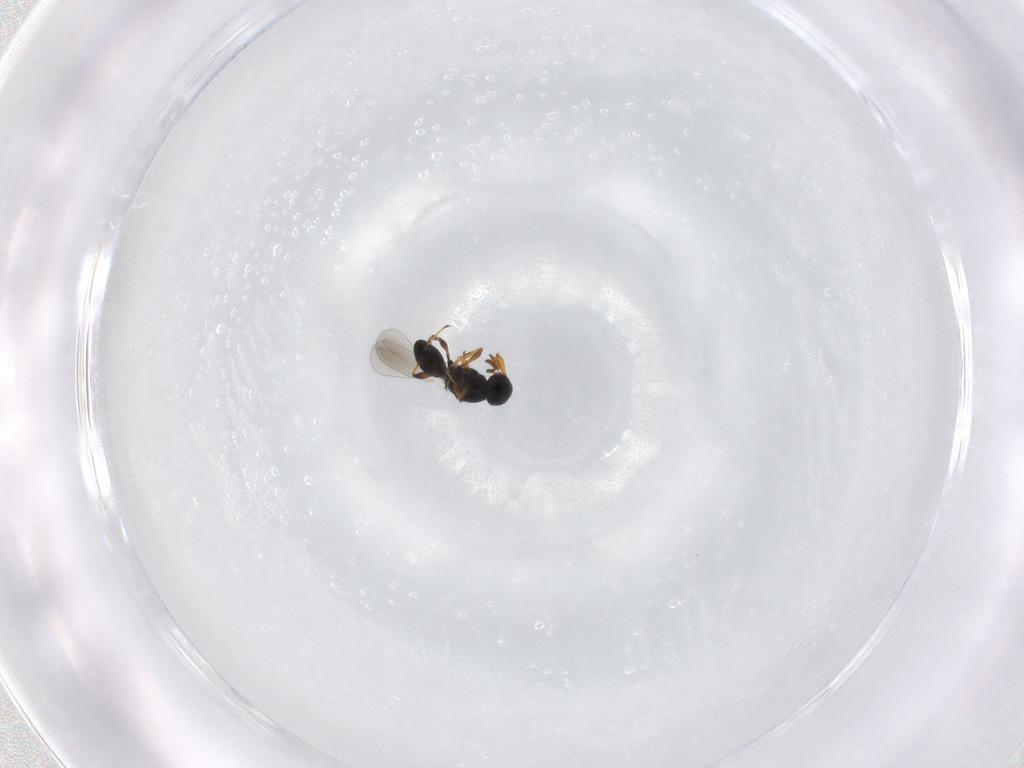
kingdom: Animalia
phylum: Arthropoda
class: Insecta
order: Hymenoptera
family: Platygastridae
